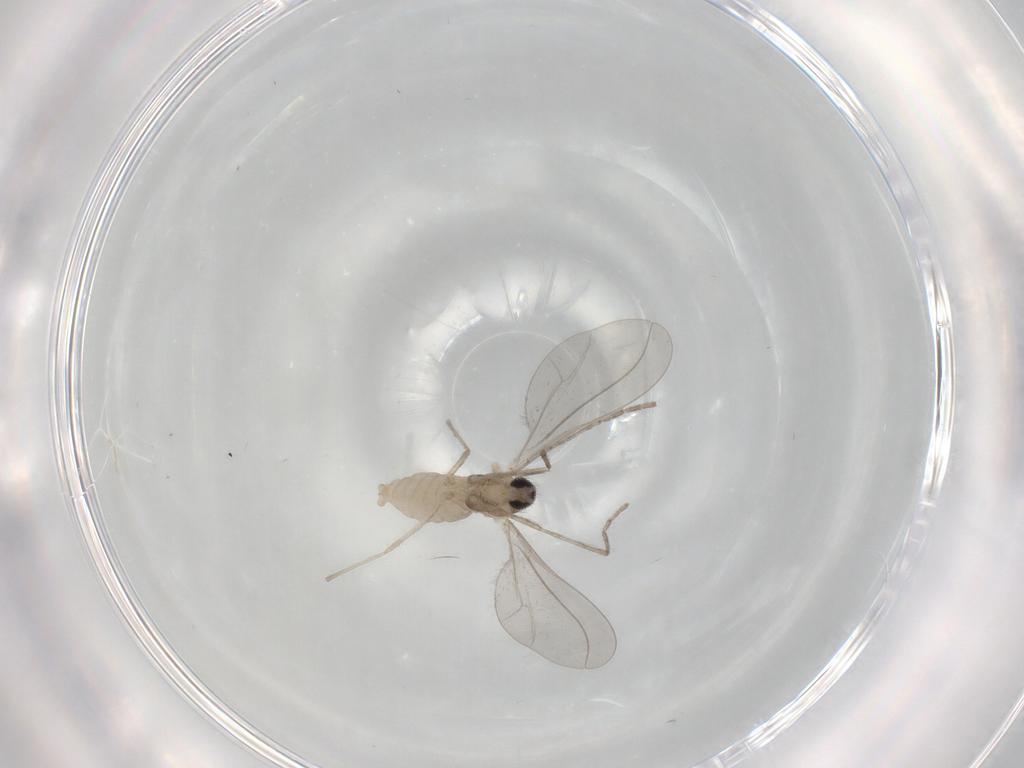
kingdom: Animalia
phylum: Arthropoda
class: Insecta
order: Diptera
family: Cecidomyiidae
